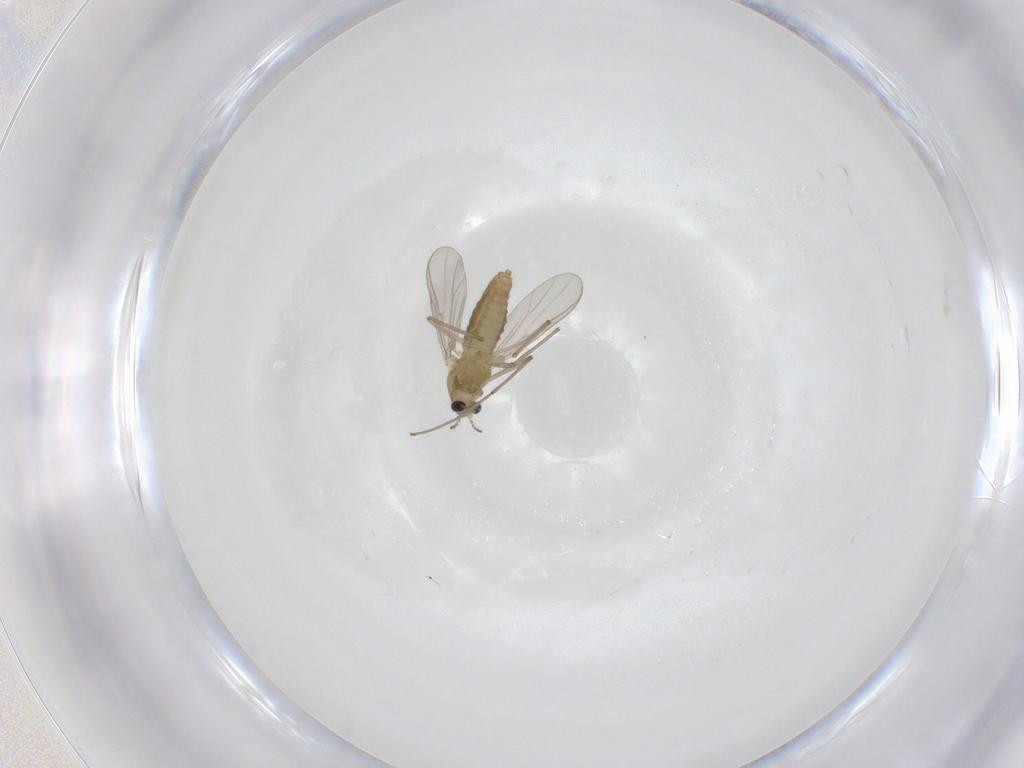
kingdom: Animalia
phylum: Arthropoda
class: Insecta
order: Diptera
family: Chironomidae
